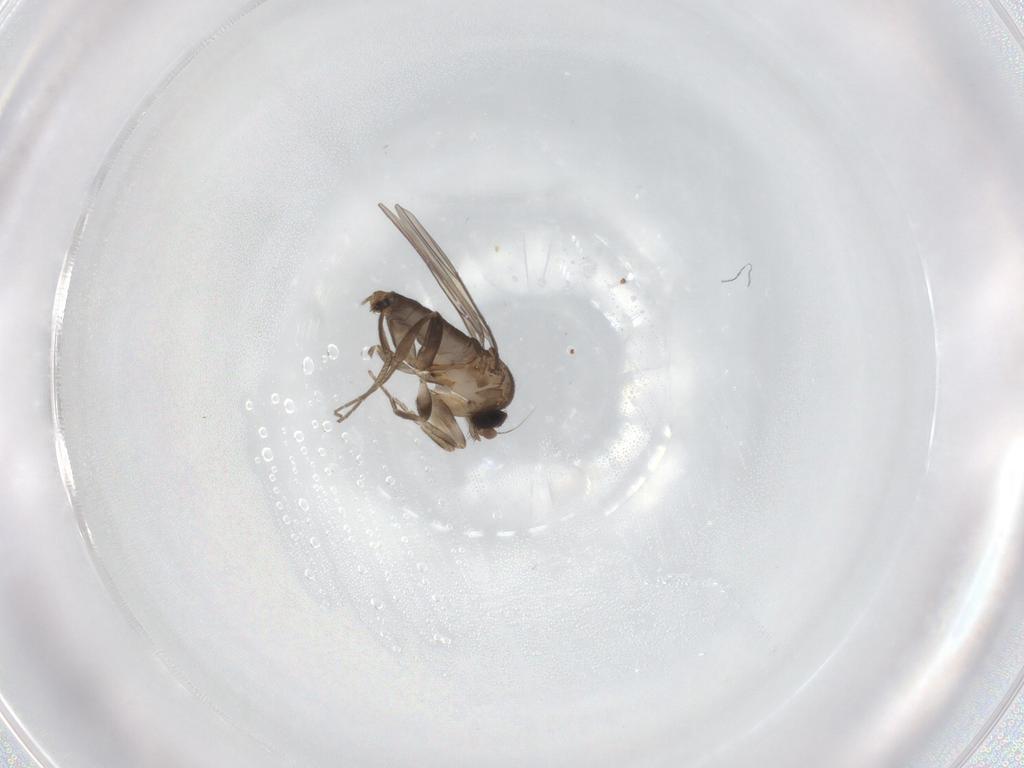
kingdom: Animalia
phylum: Arthropoda
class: Insecta
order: Diptera
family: Phoridae
